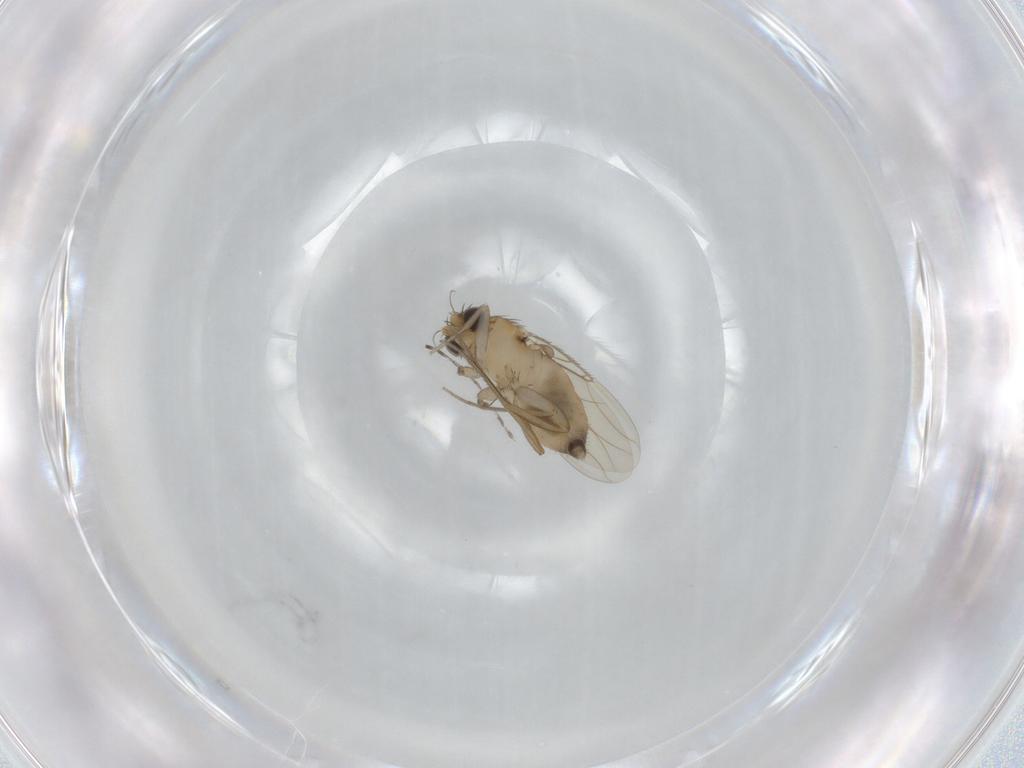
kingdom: Animalia
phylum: Arthropoda
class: Insecta
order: Diptera
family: Phoridae
